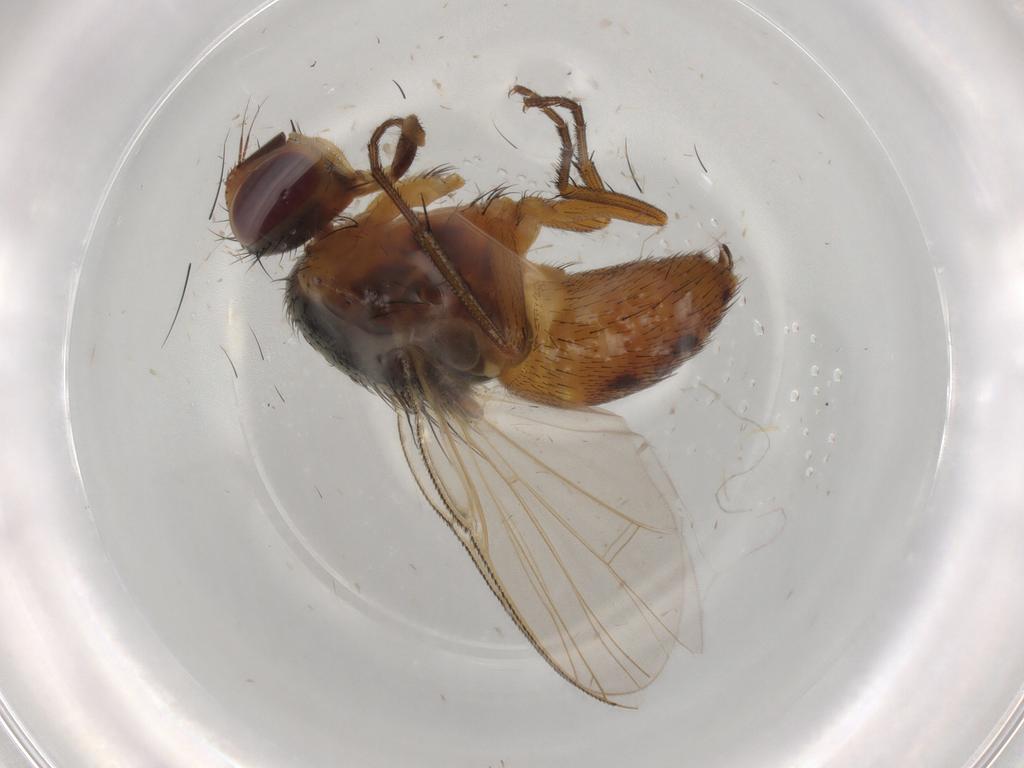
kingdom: Animalia
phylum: Arthropoda
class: Insecta
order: Diptera
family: Muscidae
